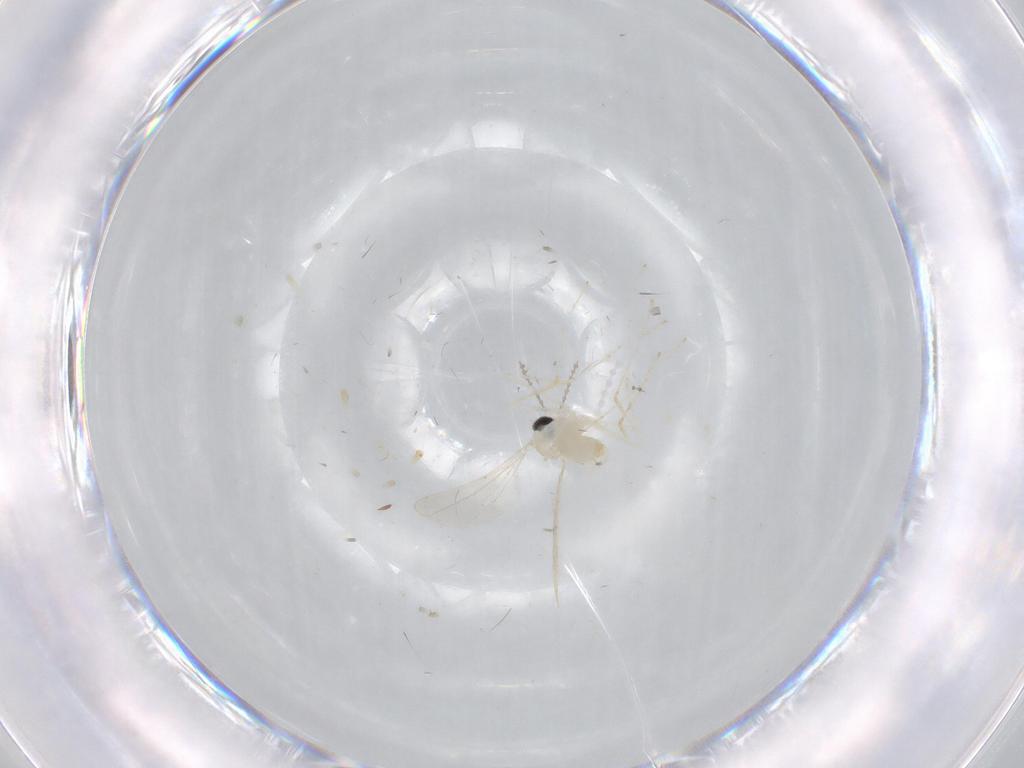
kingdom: Animalia
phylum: Arthropoda
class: Insecta
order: Diptera
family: Cecidomyiidae
